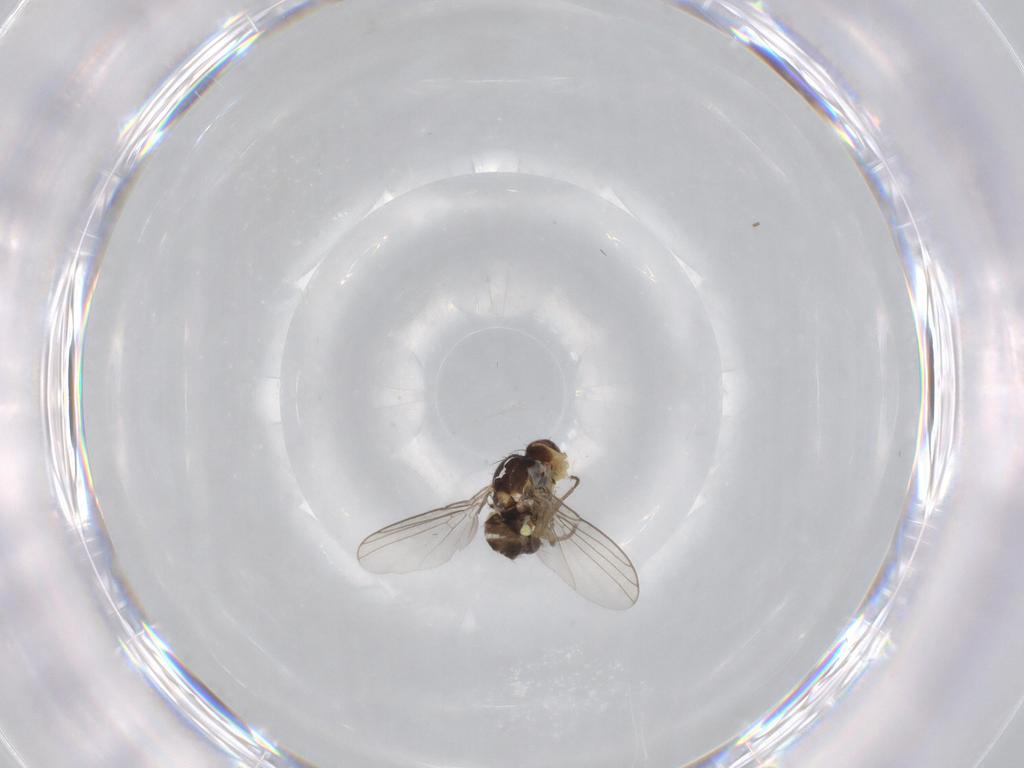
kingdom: Animalia
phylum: Arthropoda
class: Insecta
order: Diptera
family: Agromyzidae
